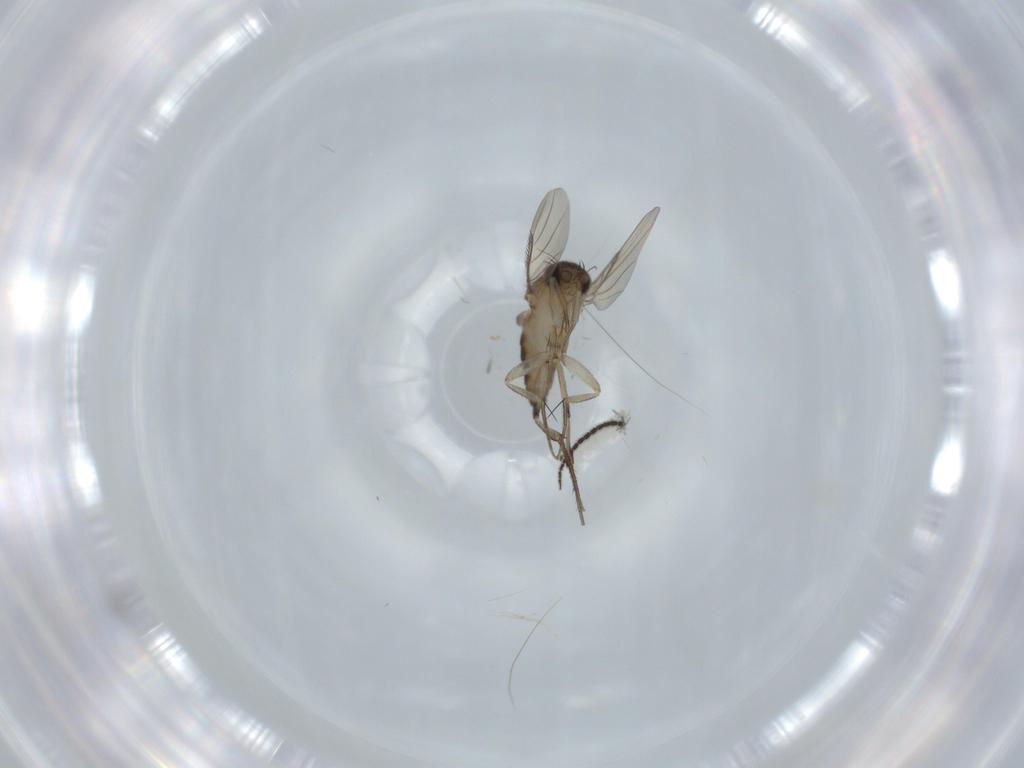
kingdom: Animalia
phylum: Arthropoda
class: Insecta
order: Diptera
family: Phoridae
